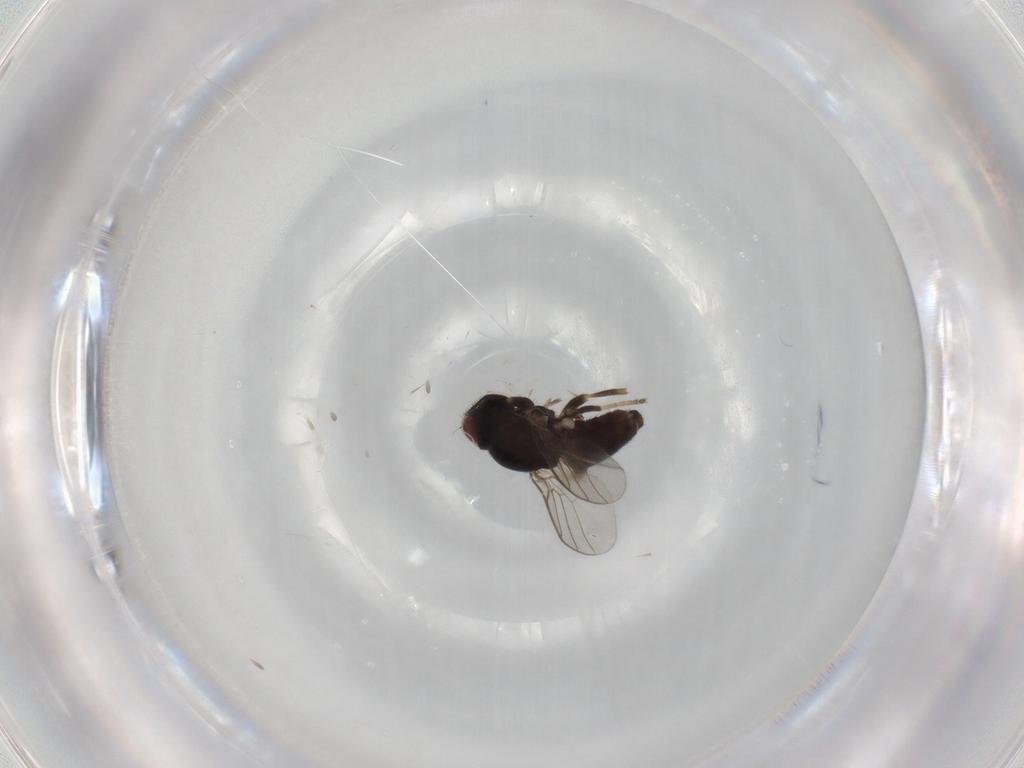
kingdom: Animalia
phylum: Arthropoda
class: Insecta
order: Diptera
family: Chloropidae
